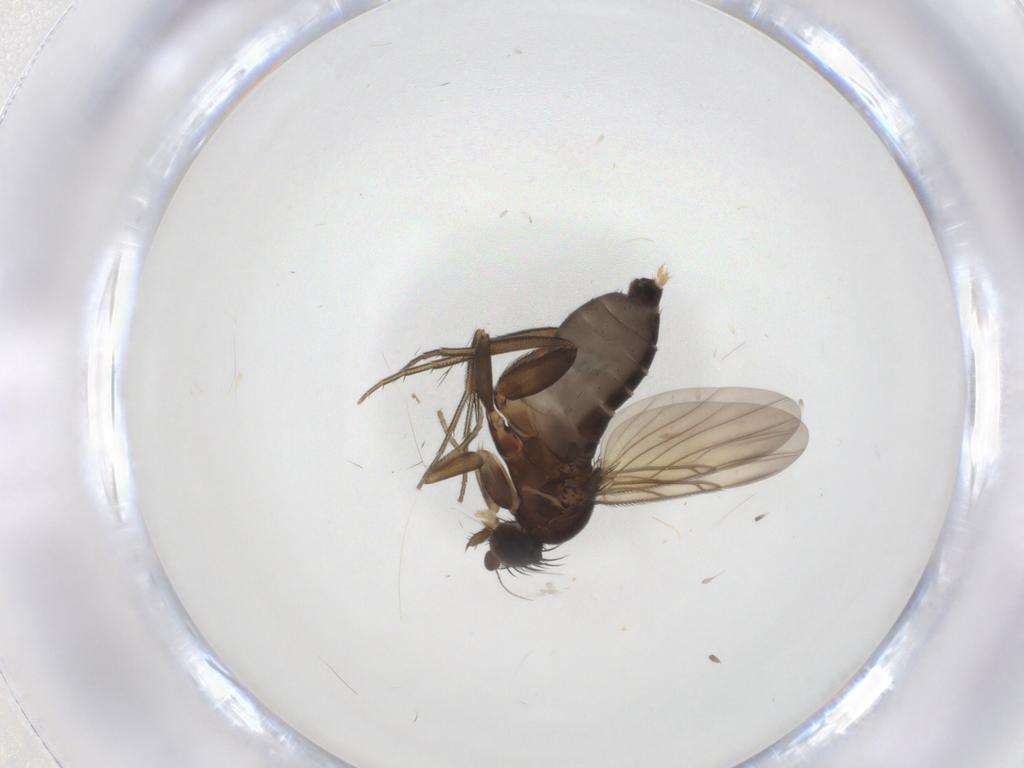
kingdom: Animalia
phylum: Arthropoda
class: Insecta
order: Diptera
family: Phoridae
